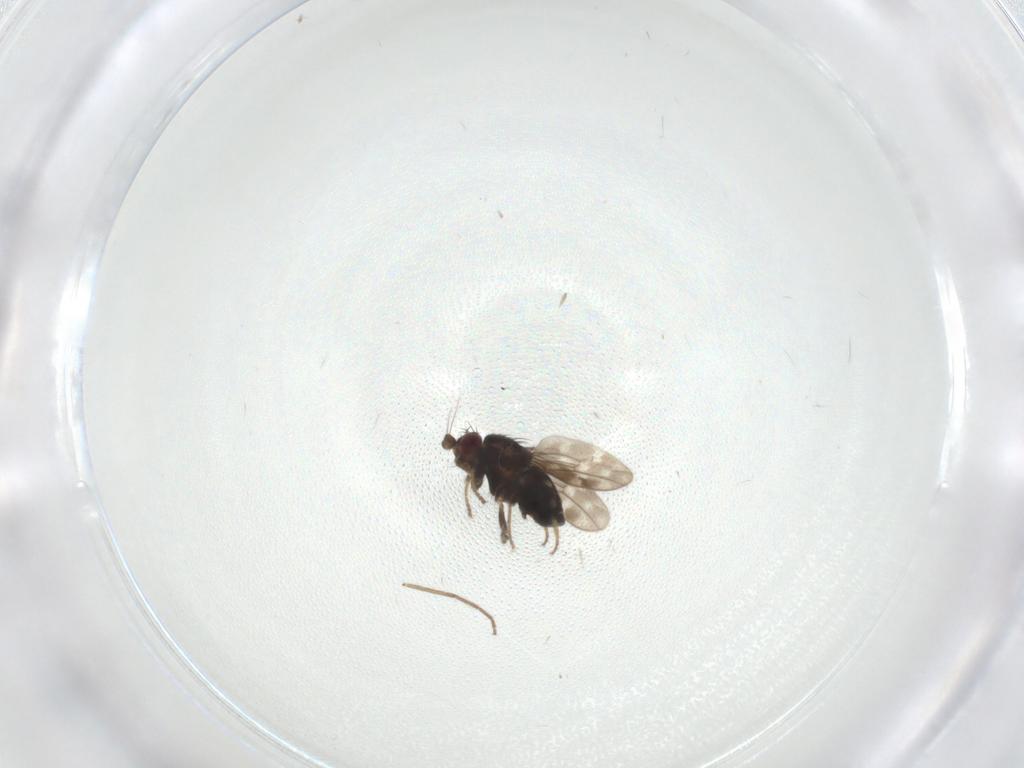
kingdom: Animalia
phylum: Arthropoda
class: Insecta
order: Diptera
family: Sphaeroceridae
